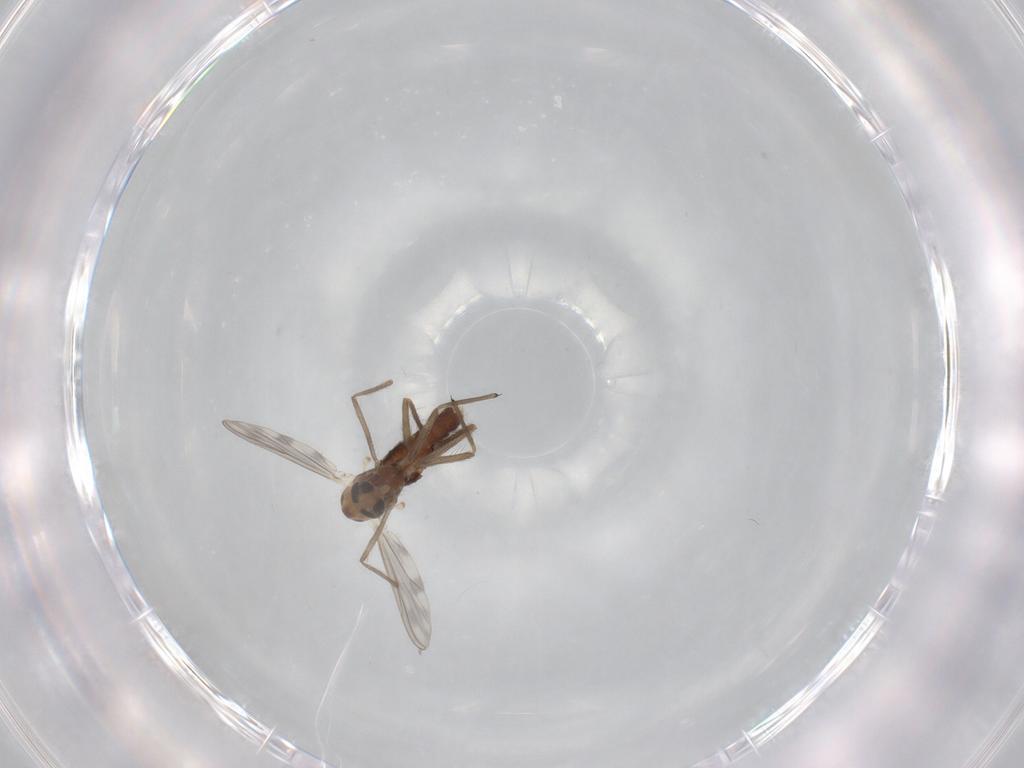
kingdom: Animalia
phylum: Arthropoda
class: Insecta
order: Diptera
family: Chironomidae
